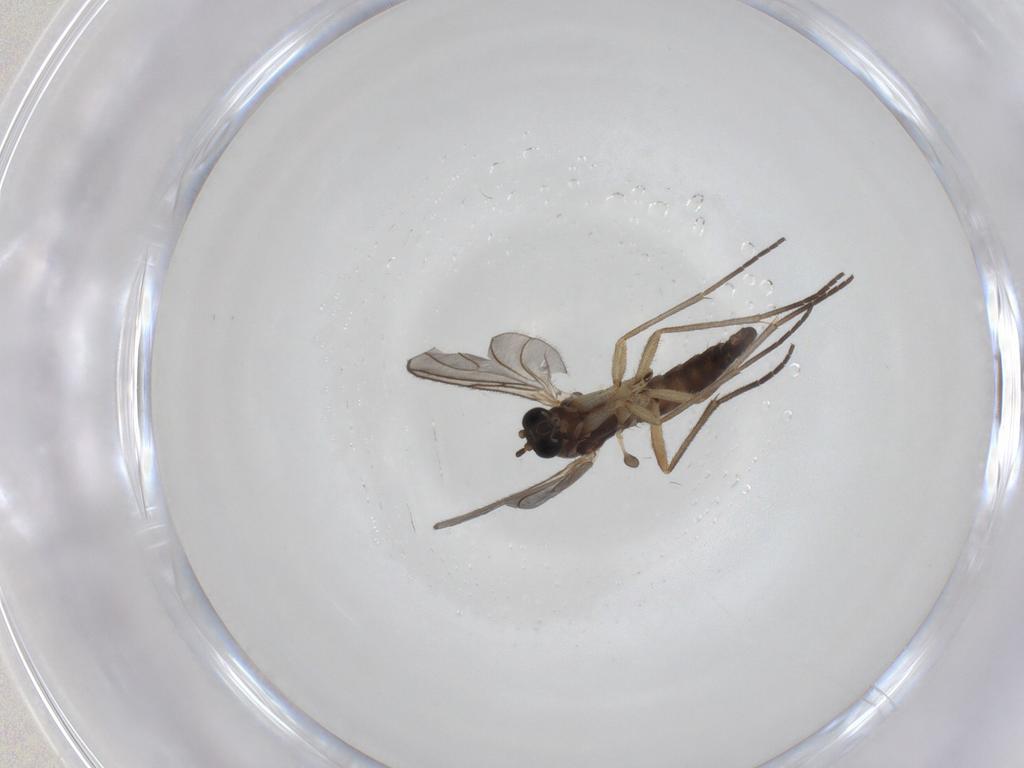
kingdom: Animalia
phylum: Arthropoda
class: Insecta
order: Diptera
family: Sciaridae
